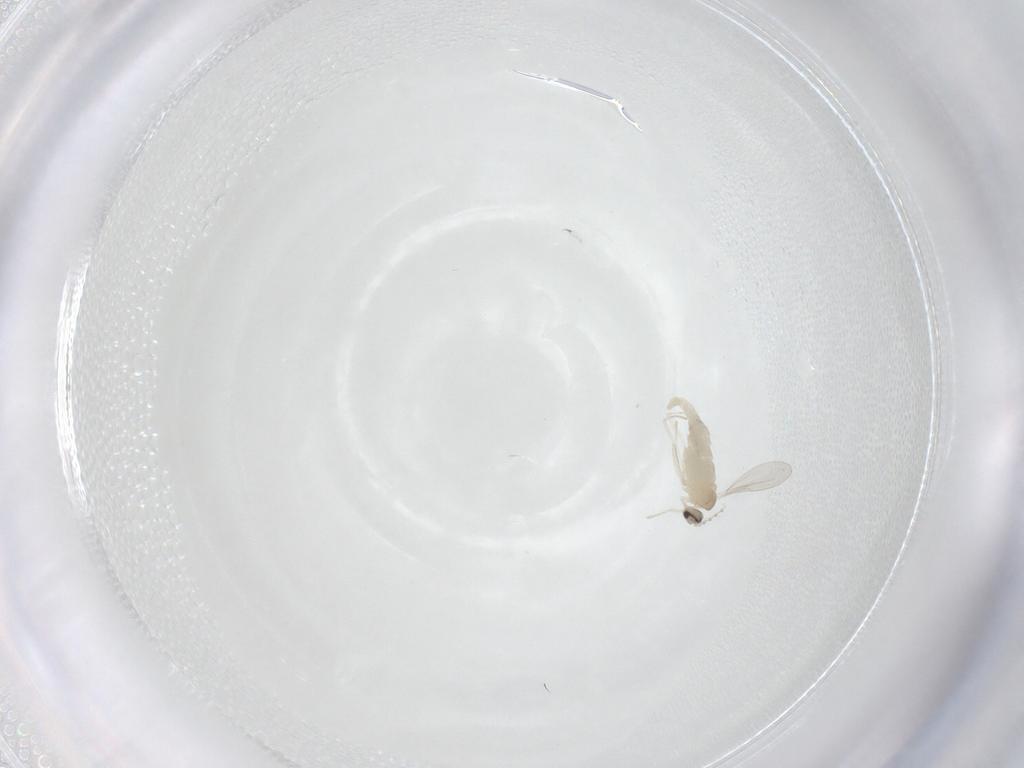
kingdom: Animalia
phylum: Arthropoda
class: Insecta
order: Diptera
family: Cecidomyiidae
